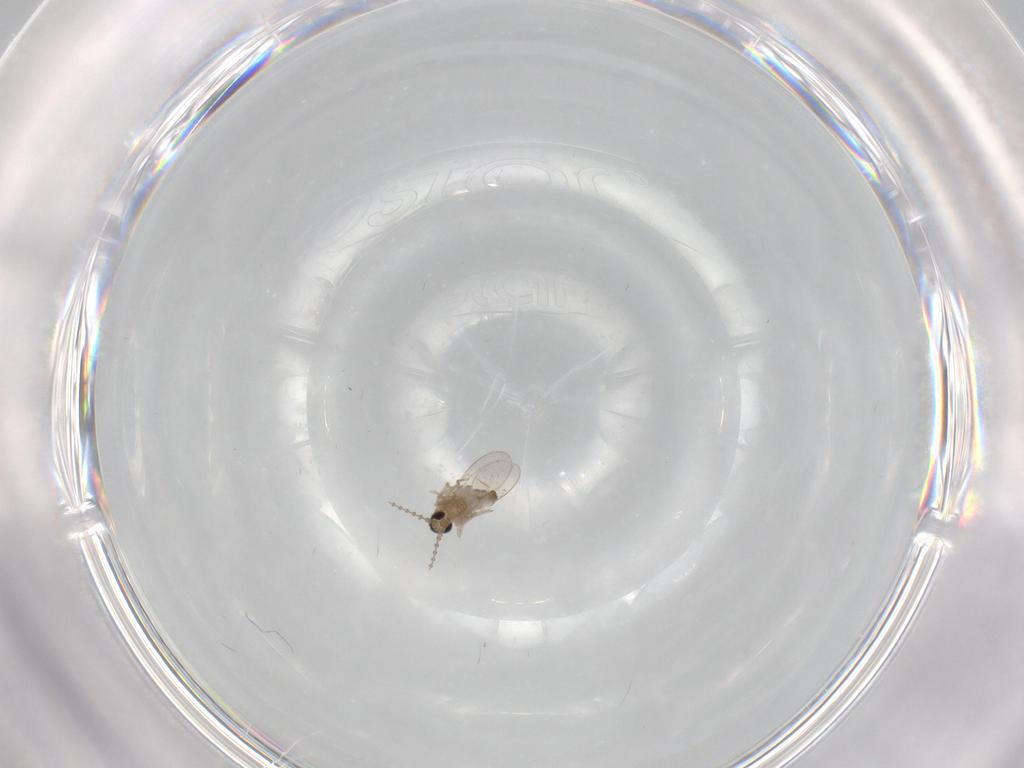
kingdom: Animalia
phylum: Arthropoda
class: Insecta
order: Diptera
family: Cecidomyiidae
